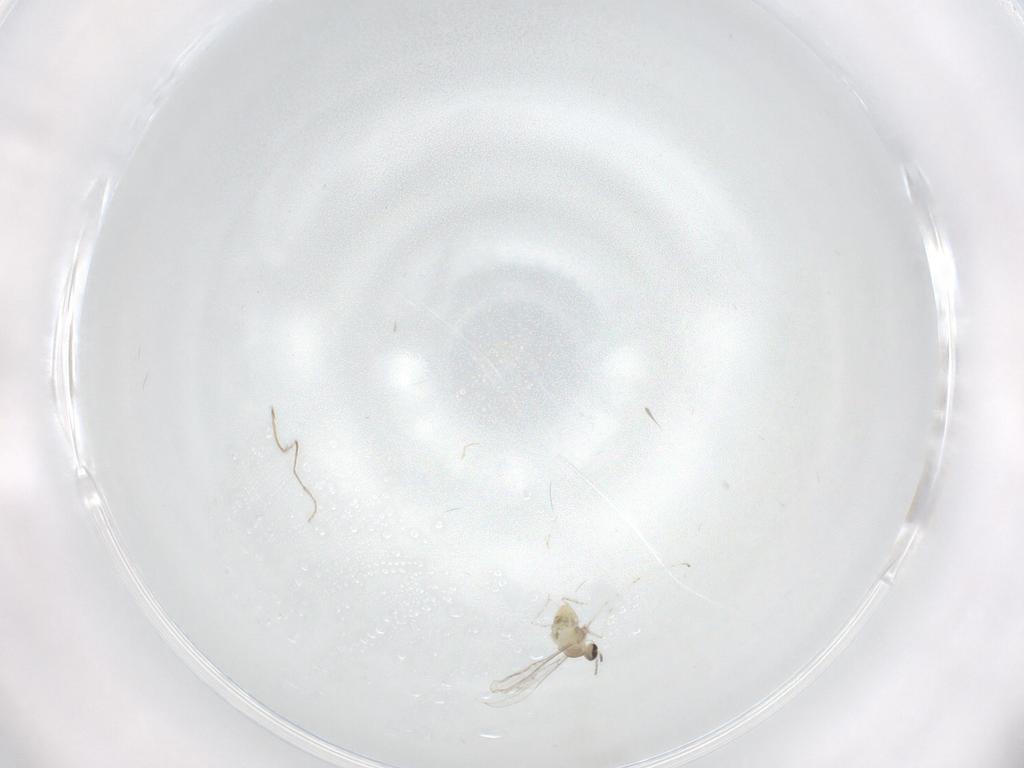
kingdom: Animalia
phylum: Arthropoda
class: Insecta
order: Diptera
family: Cecidomyiidae
